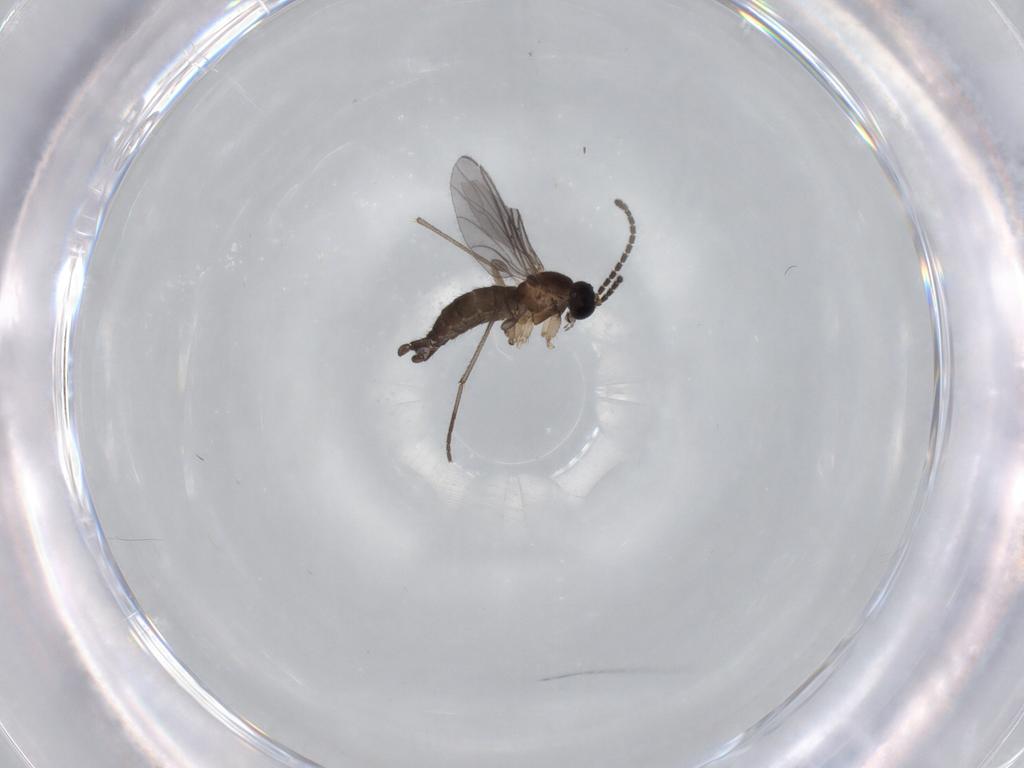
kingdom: Animalia
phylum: Arthropoda
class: Insecta
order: Diptera
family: Sciaridae
